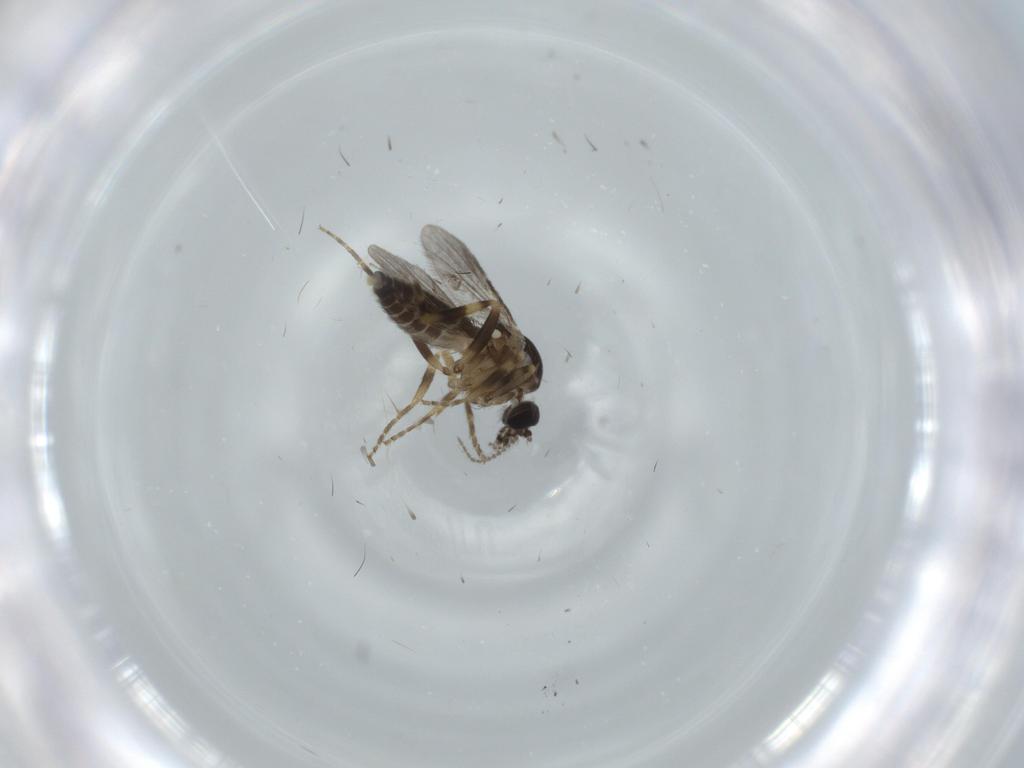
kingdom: Animalia
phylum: Arthropoda
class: Insecta
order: Diptera
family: Ceratopogonidae
